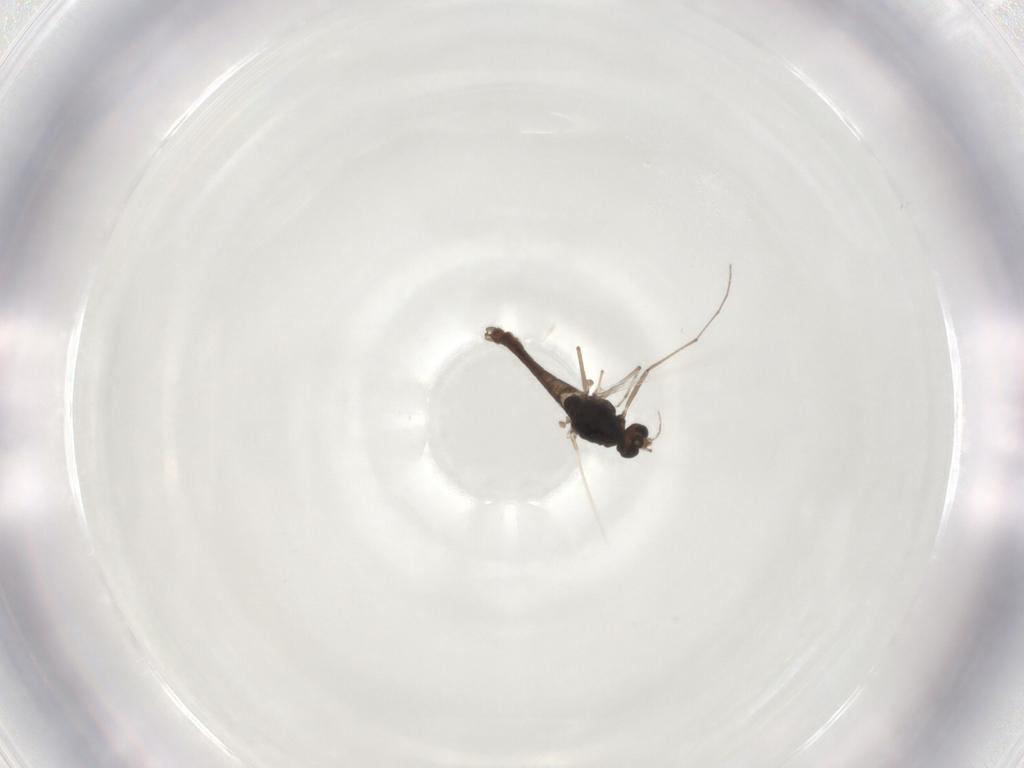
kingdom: Animalia
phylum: Arthropoda
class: Insecta
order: Diptera
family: Chironomidae
